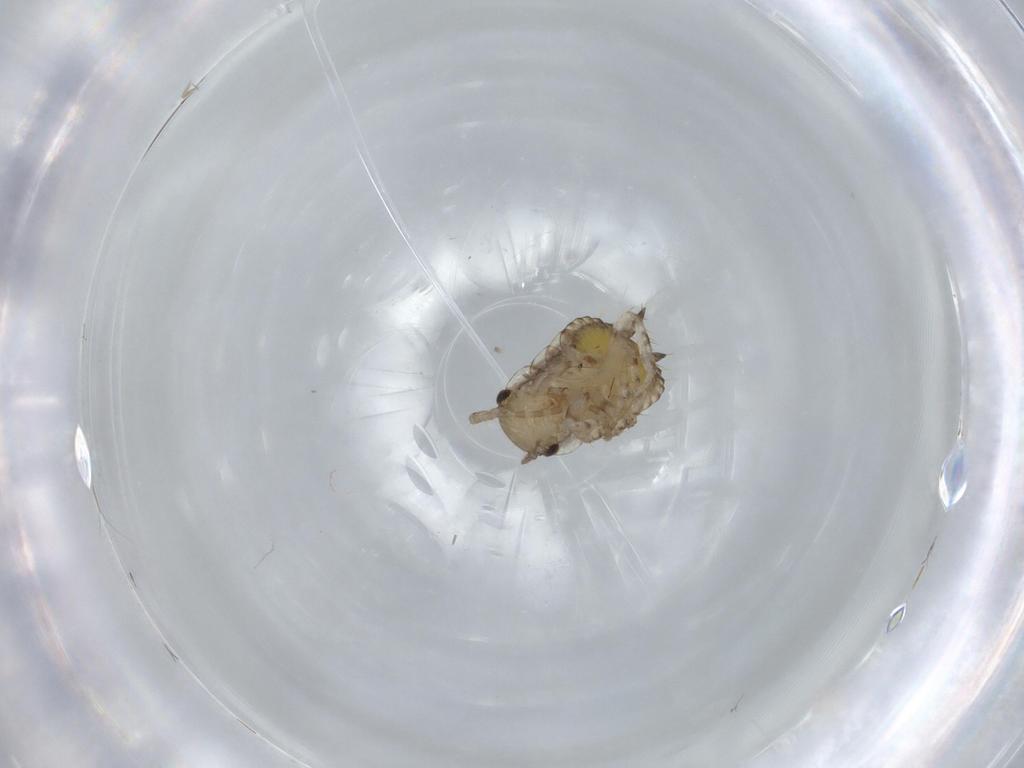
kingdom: Animalia
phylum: Arthropoda
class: Insecta
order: Blattodea
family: Ectobiidae
